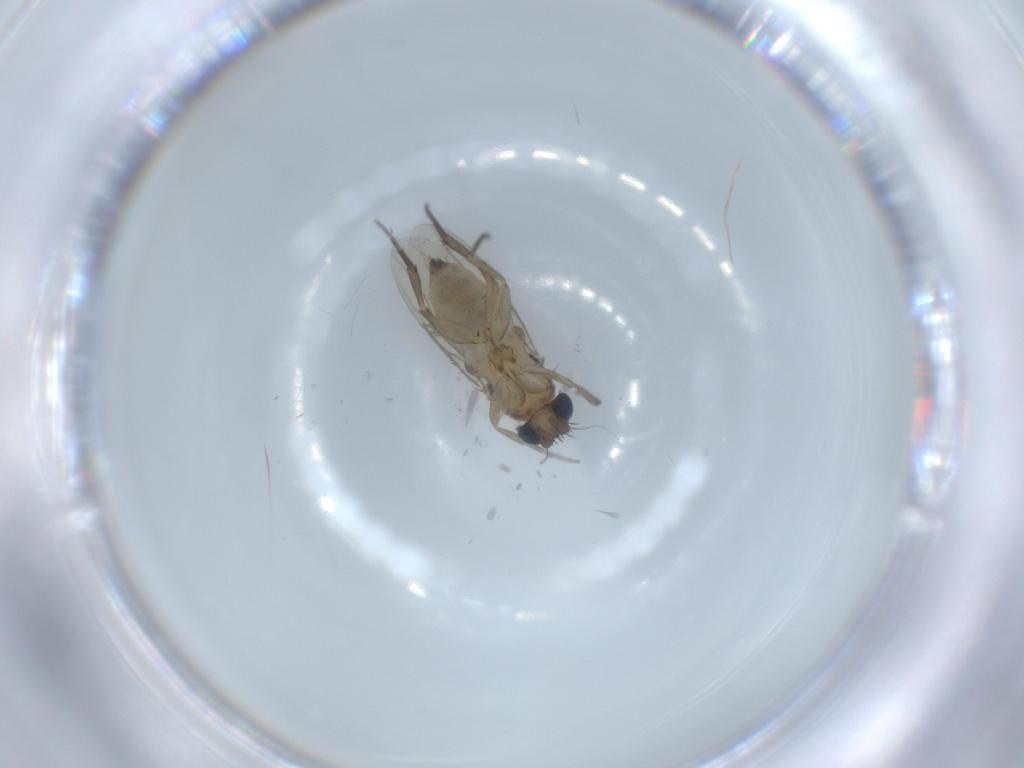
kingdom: Animalia
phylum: Arthropoda
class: Insecta
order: Diptera
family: Phoridae
